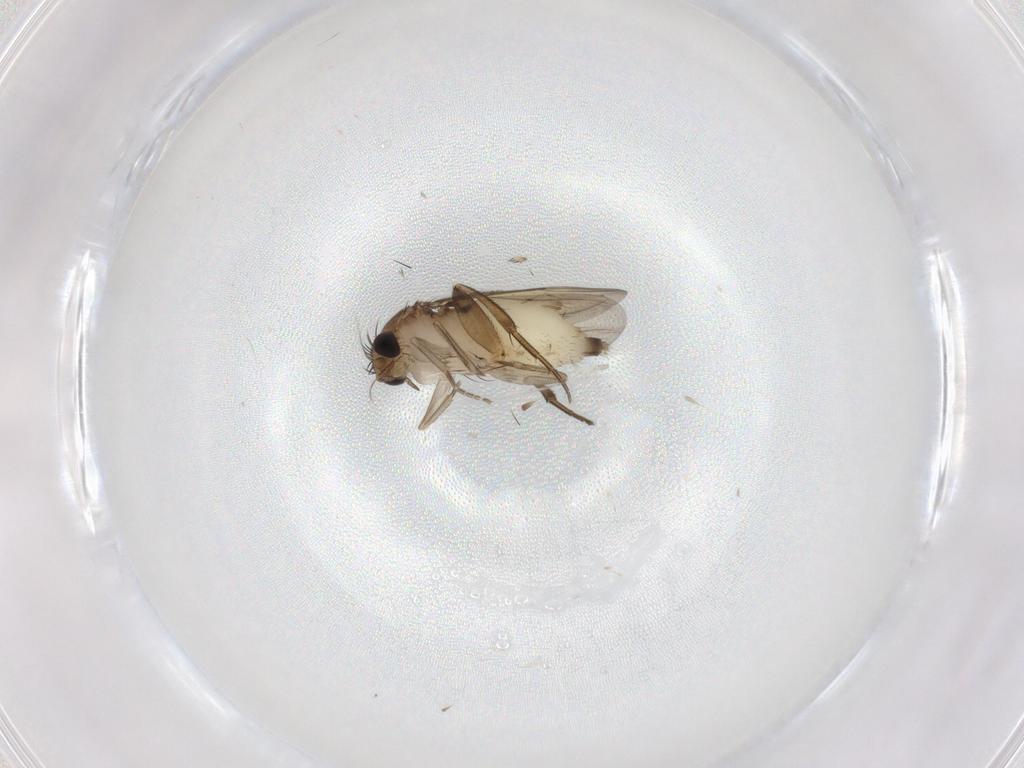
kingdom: Animalia
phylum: Arthropoda
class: Insecta
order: Diptera
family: Phoridae
